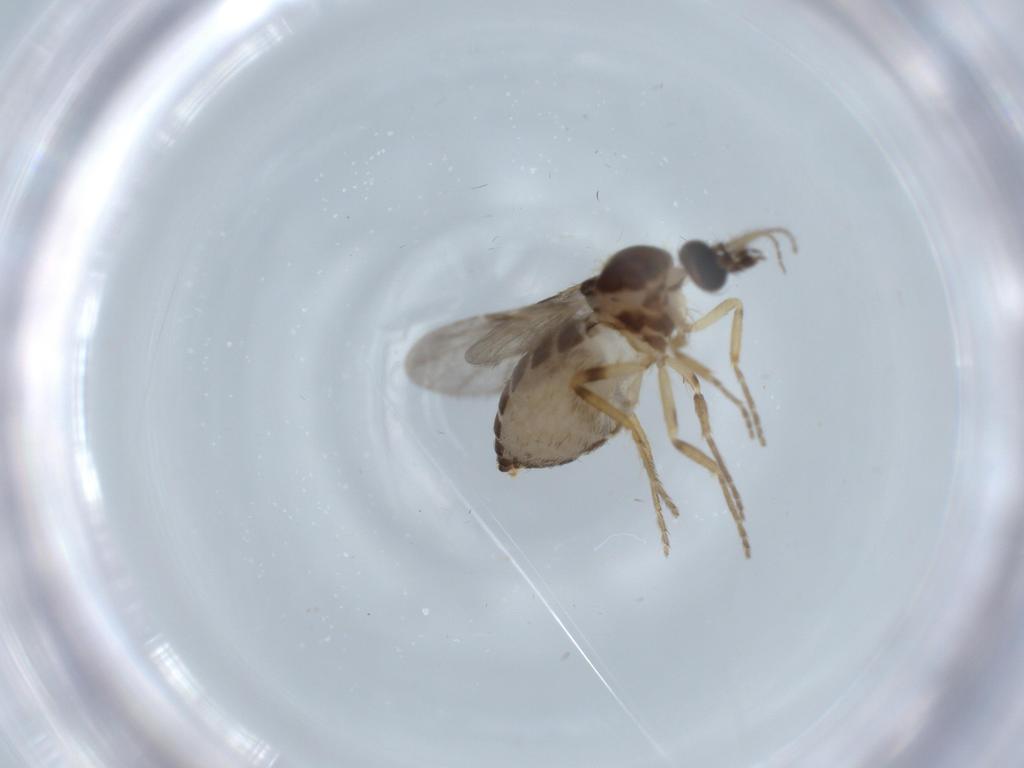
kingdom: Animalia
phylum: Arthropoda
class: Insecta
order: Diptera
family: Ceratopogonidae
